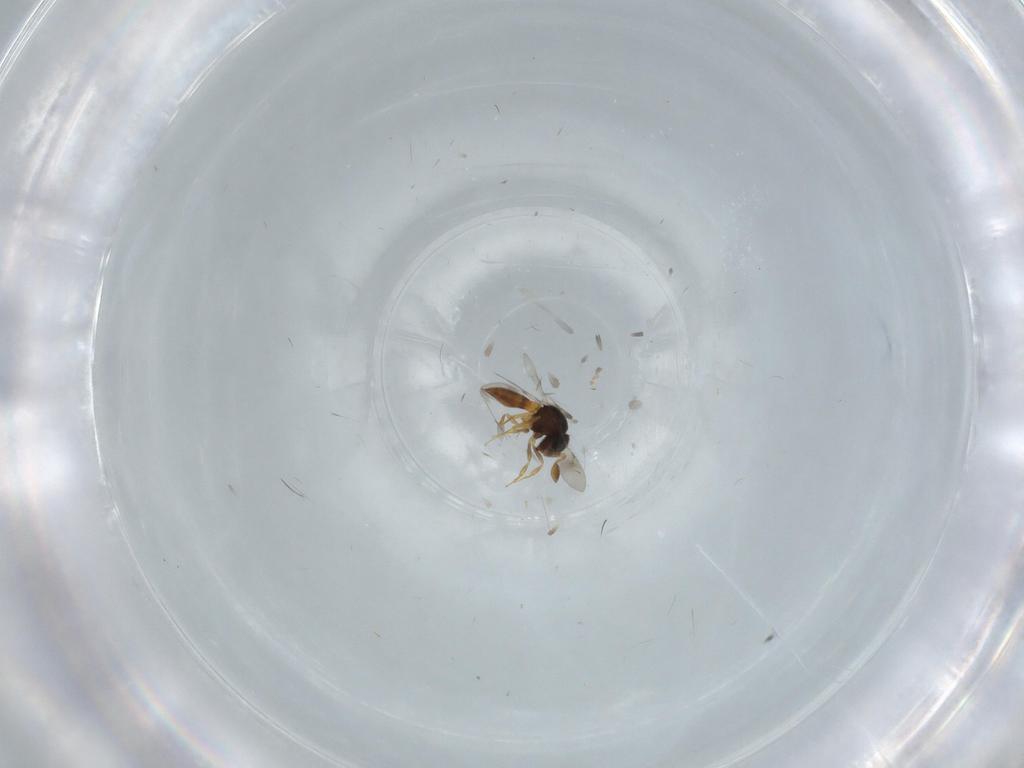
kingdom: Animalia
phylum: Arthropoda
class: Insecta
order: Hymenoptera
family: Scelionidae
